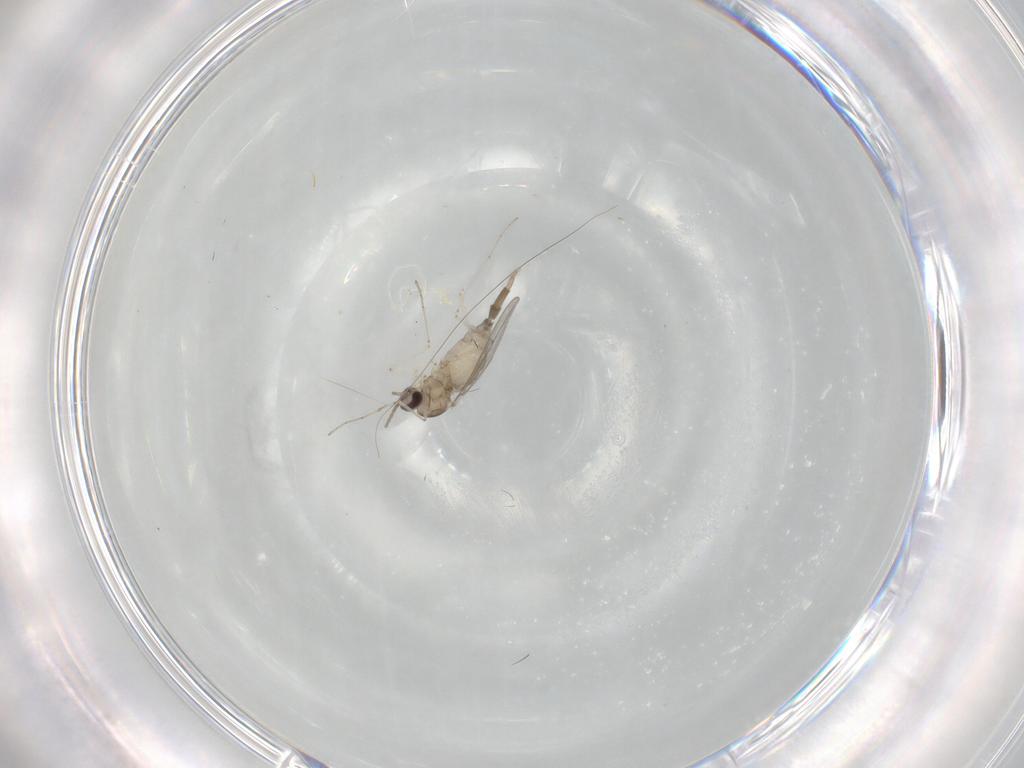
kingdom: Animalia
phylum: Arthropoda
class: Insecta
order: Diptera
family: Cecidomyiidae
